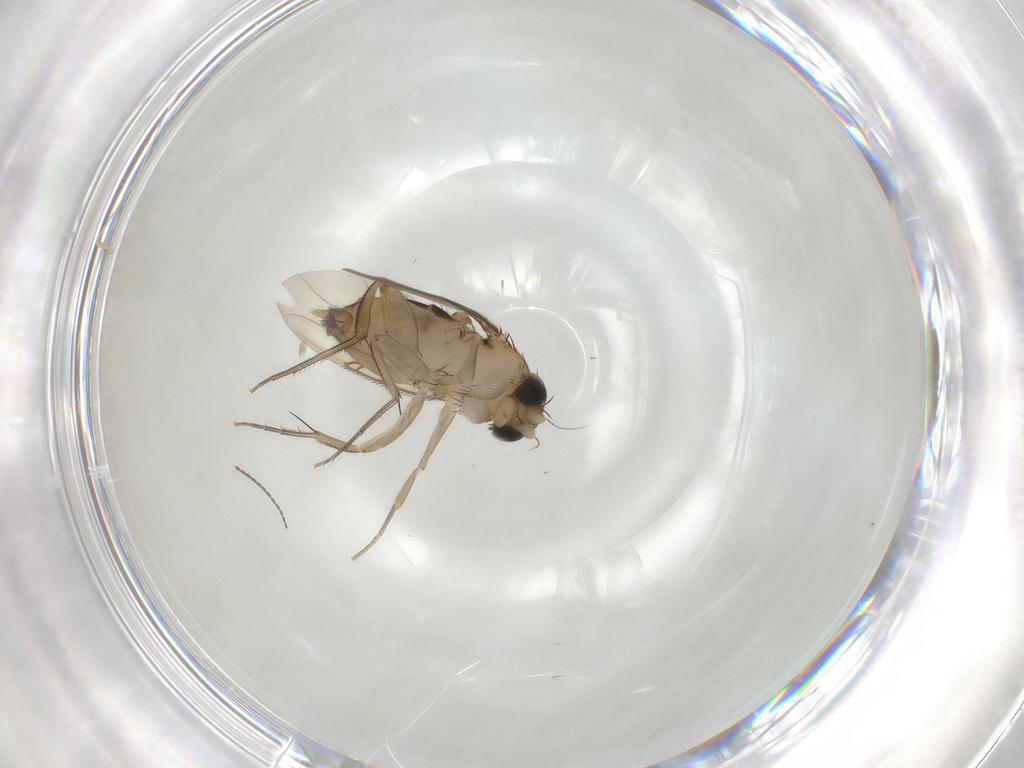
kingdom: Animalia
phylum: Arthropoda
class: Insecta
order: Diptera
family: Phoridae
